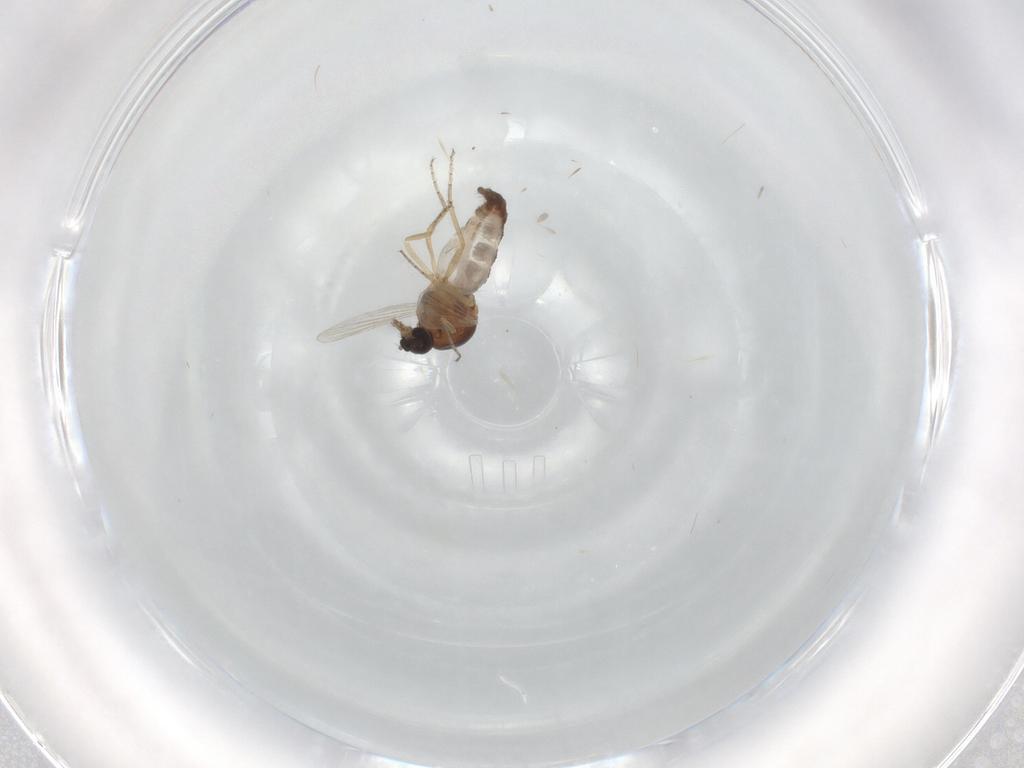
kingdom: Animalia
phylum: Arthropoda
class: Insecta
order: Diptera
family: Ceratopogonidae
